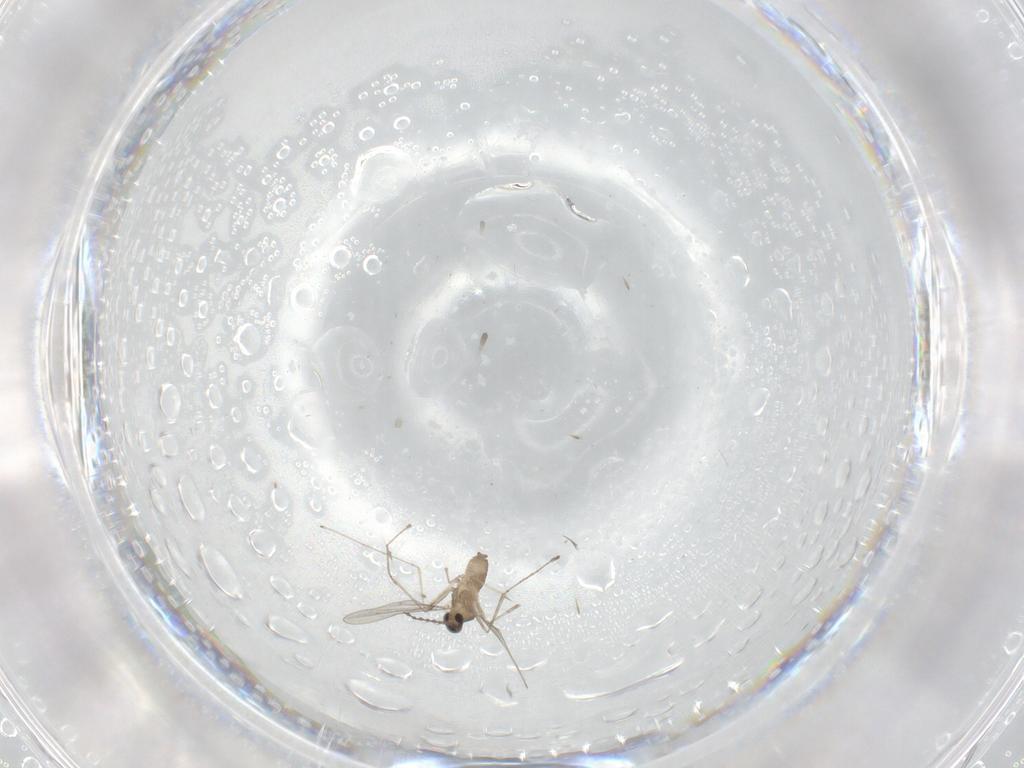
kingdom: Animalia
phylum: Arthropoda
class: Insecta
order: Diptera
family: Cecidomyiidae
